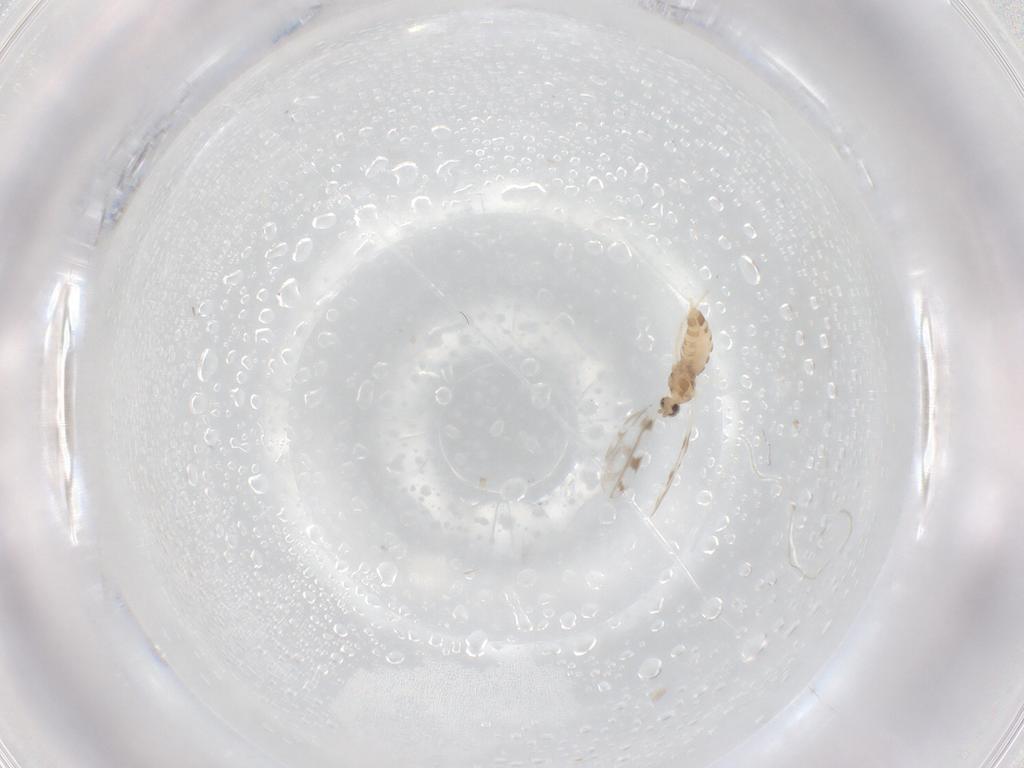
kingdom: Animalia
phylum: Arthropoda
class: Insecta
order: Diptera
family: Cecidomyiidae
